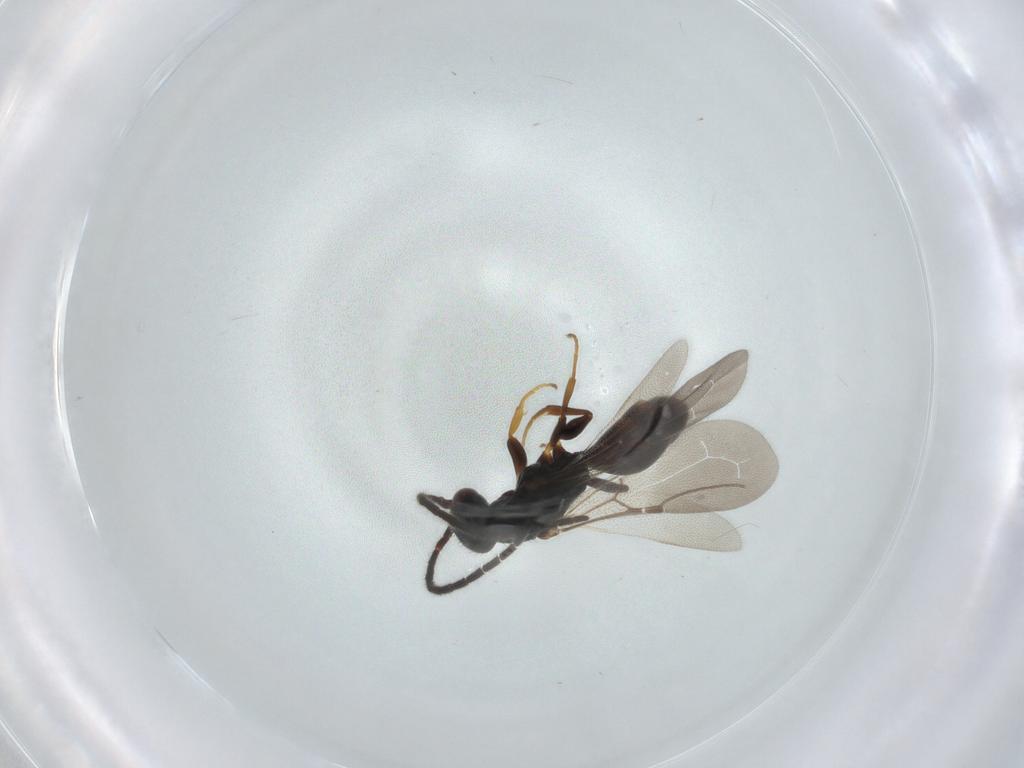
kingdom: Animalia
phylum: Arthropoda
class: Insecta
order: Hymenoptera
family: Bethylidae
